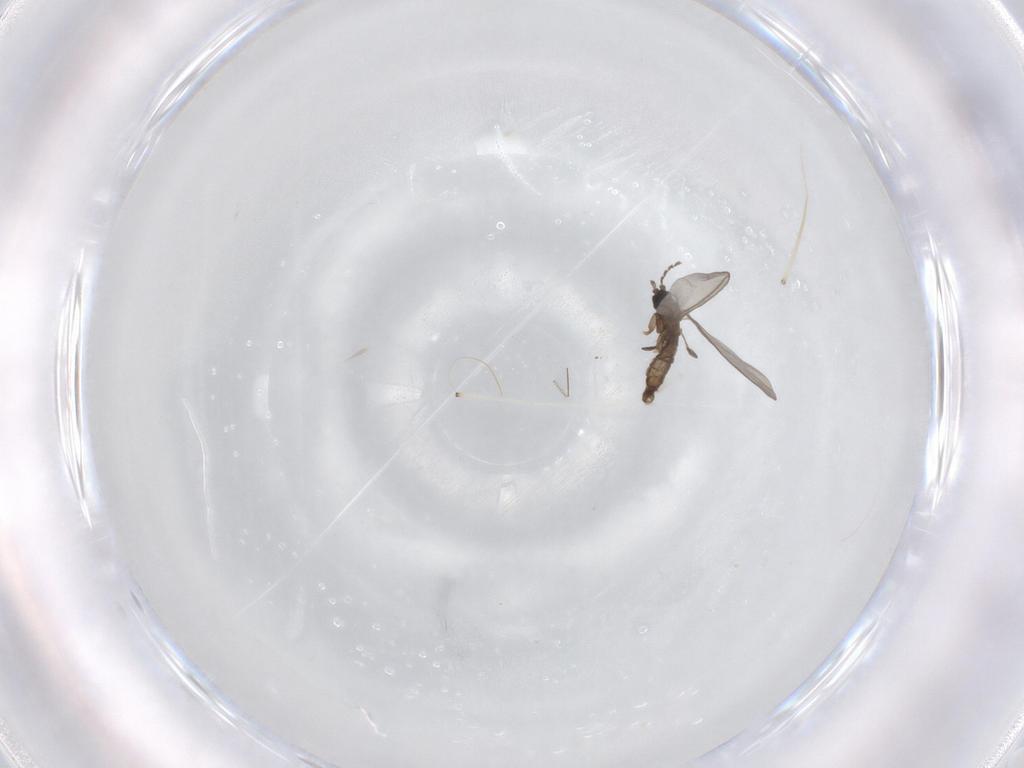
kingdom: Animalia
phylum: Arthropoda
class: Insecta
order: Diptera
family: Sciaridae
